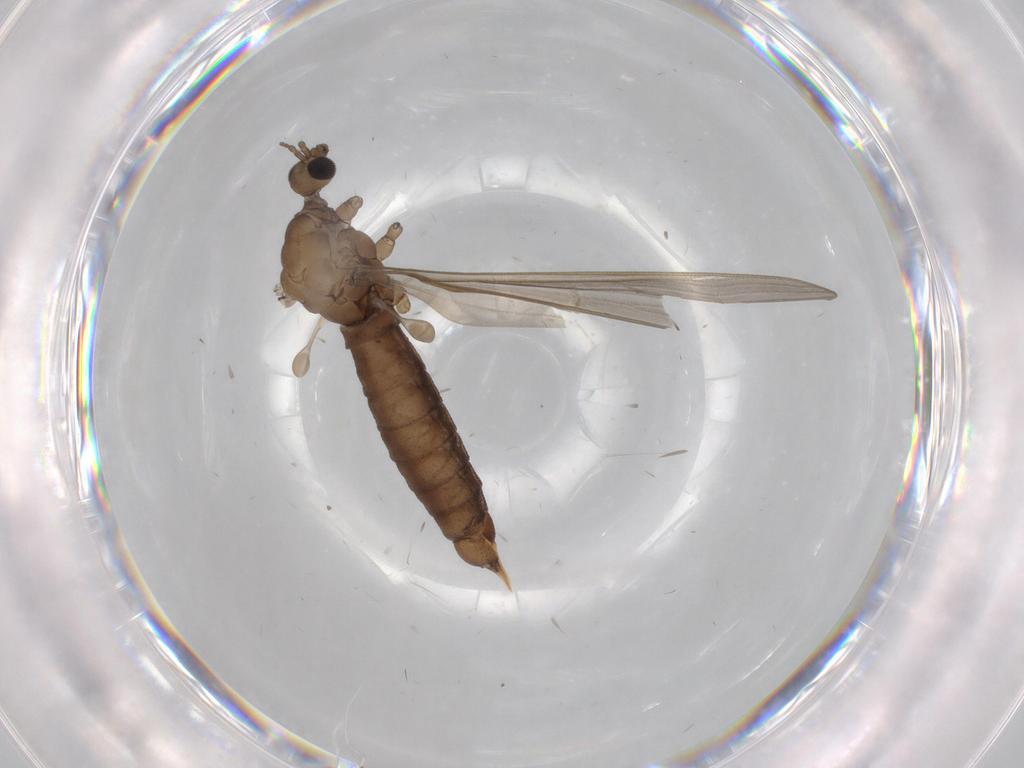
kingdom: Animalia
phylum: Arthropoda
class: Insecta
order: Diptera
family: Limoniidae
